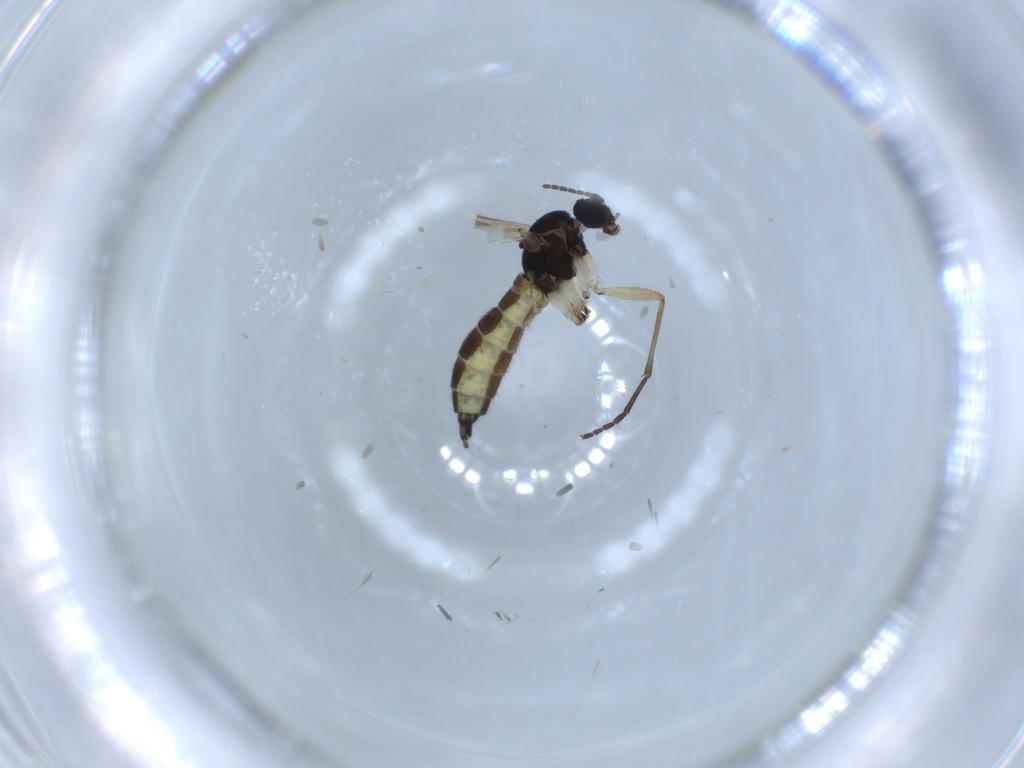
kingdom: Animalia
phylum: Arthropoda
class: Insecta
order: Diptera
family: Sciaridae
